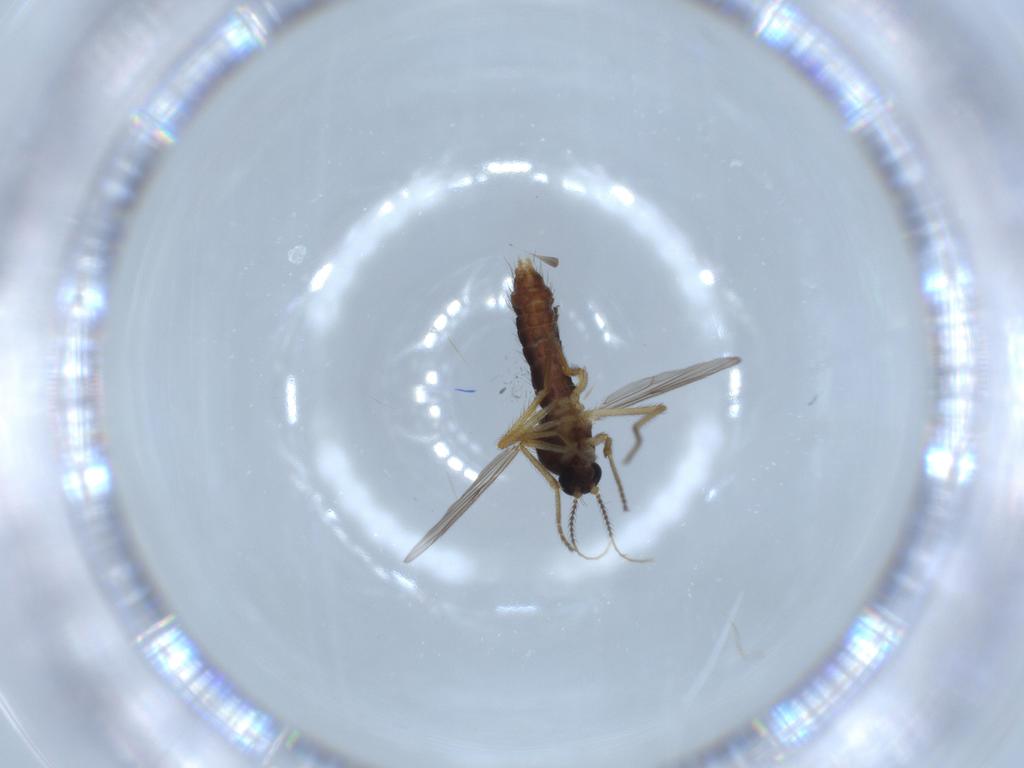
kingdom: Animalia
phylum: Arthropoda
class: Insecta
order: Diptera
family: Ceratopogonidae
